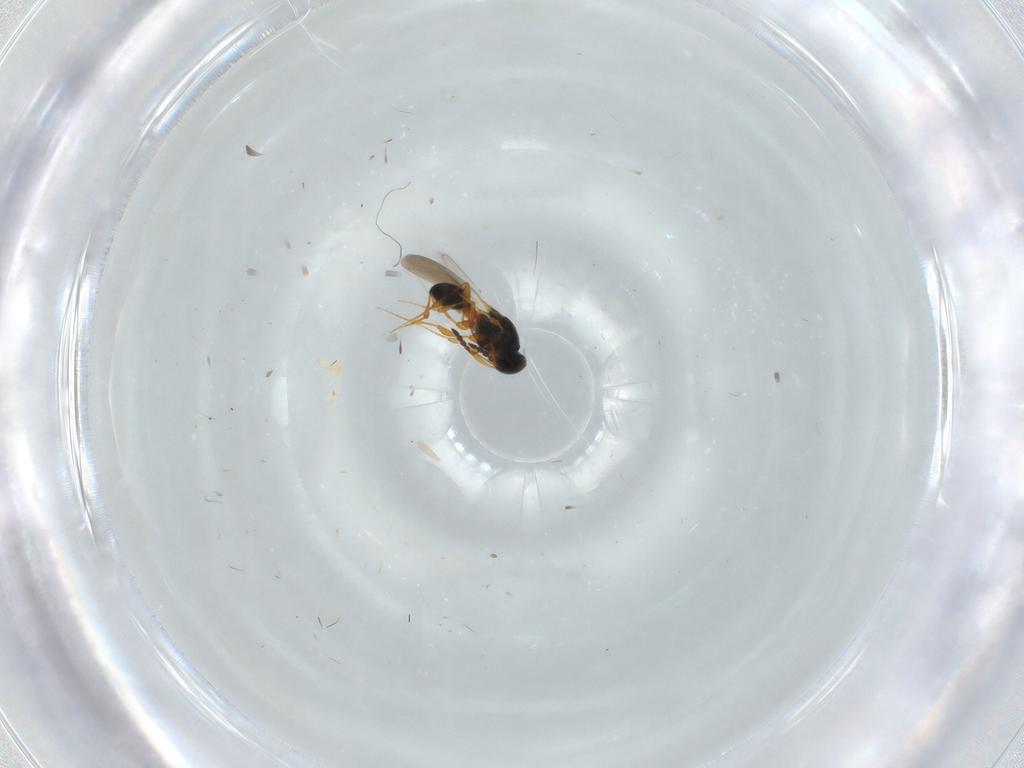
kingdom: Animalia
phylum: Arthropoda
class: Insecta
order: Hymenoptera
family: Platygastridae
